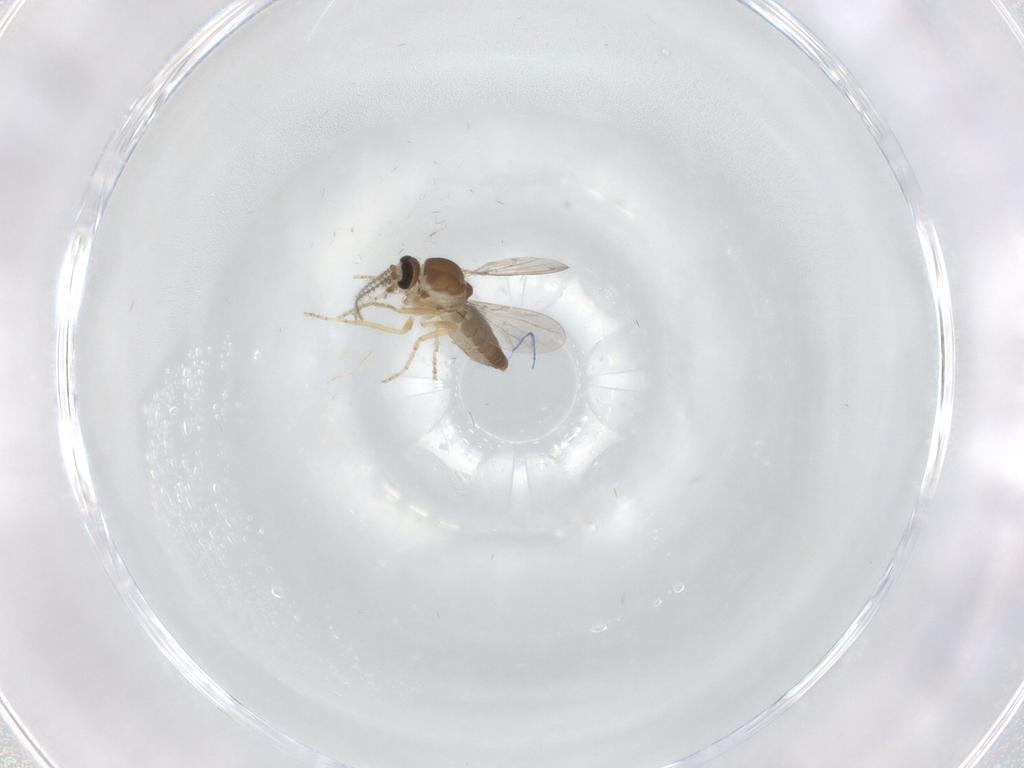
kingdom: Animalia
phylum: Arthropoda
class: Insecta
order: Diptera
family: Ceratopogonidae
